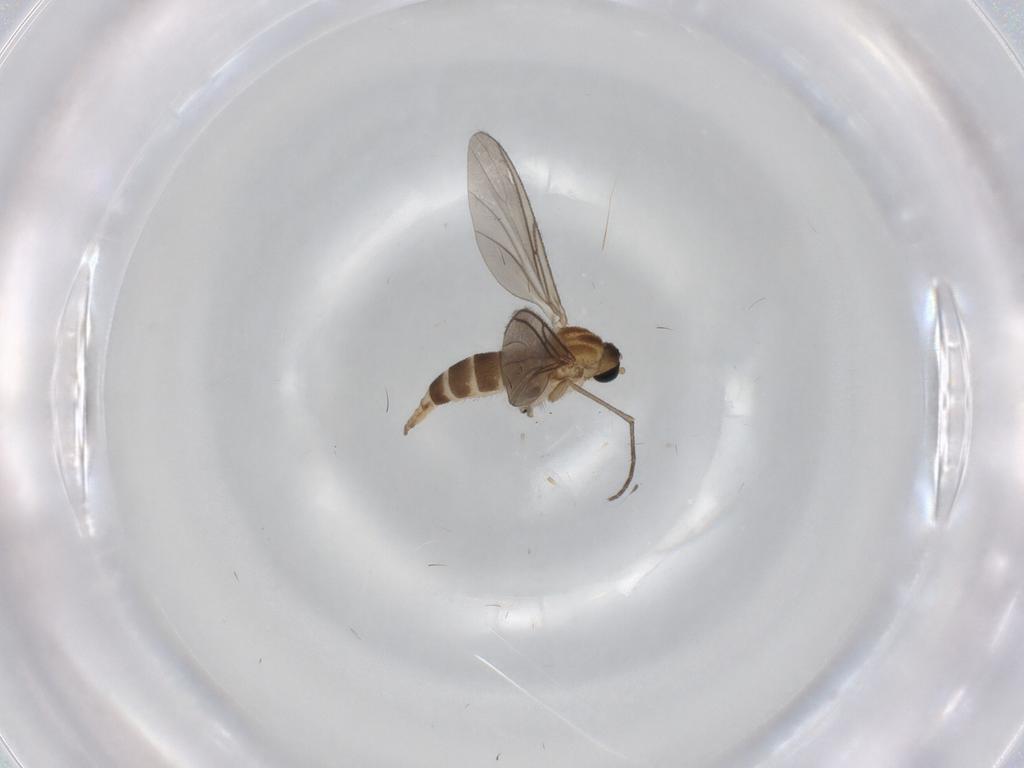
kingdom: Animalia
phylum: Arthropoda
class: Insecta
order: Diptera
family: Sciaridae
